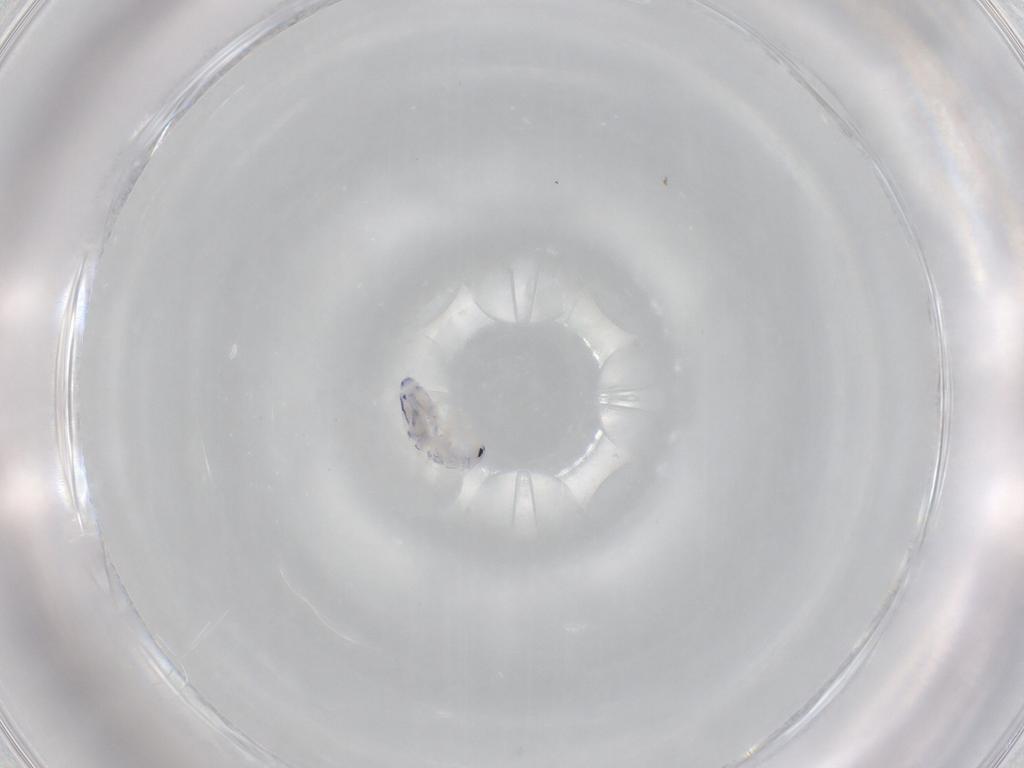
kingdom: Animalia
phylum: Arthropoda
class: Collembola
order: Entomobryomorpha
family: Entomobryidae
